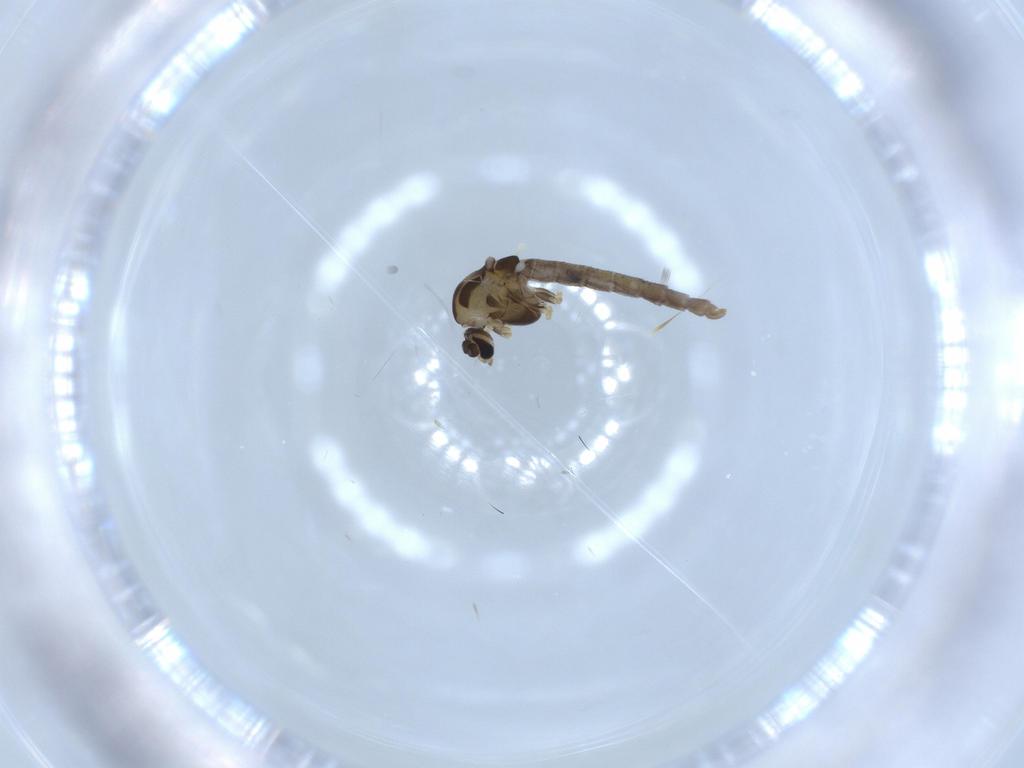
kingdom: Animalia
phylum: Arthropoda
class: Insecta
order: Diptera
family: Chironomidae
